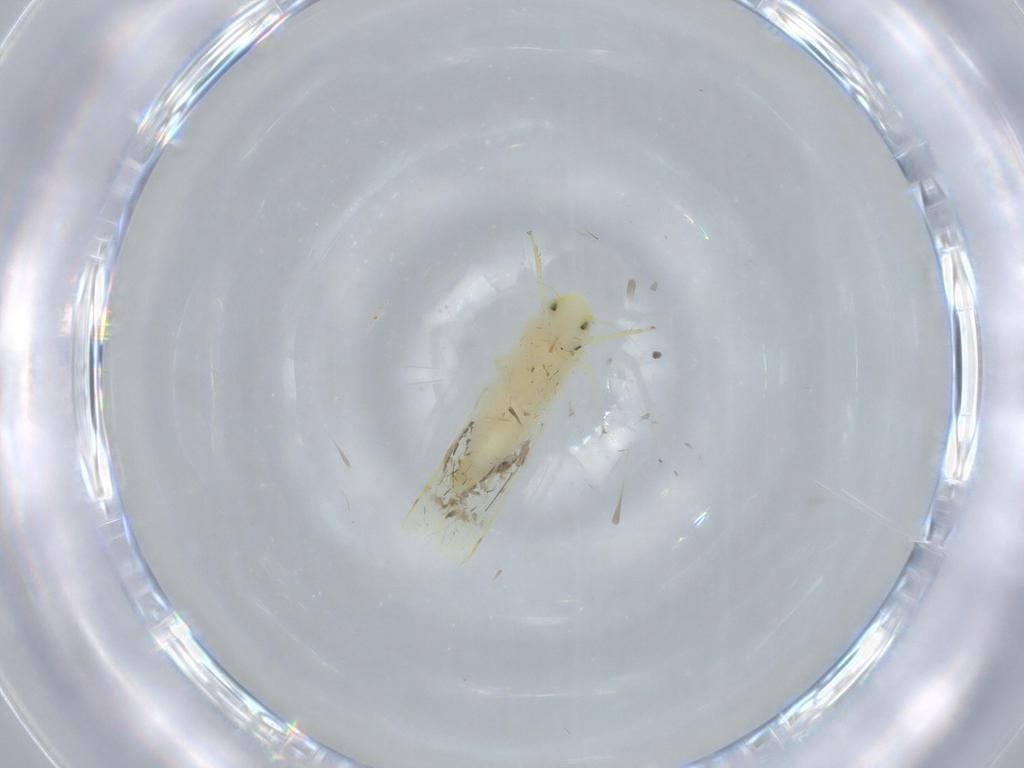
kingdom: Animalia
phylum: Arthropoda
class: Insecta
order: Hemiptera
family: Cicadellidae
